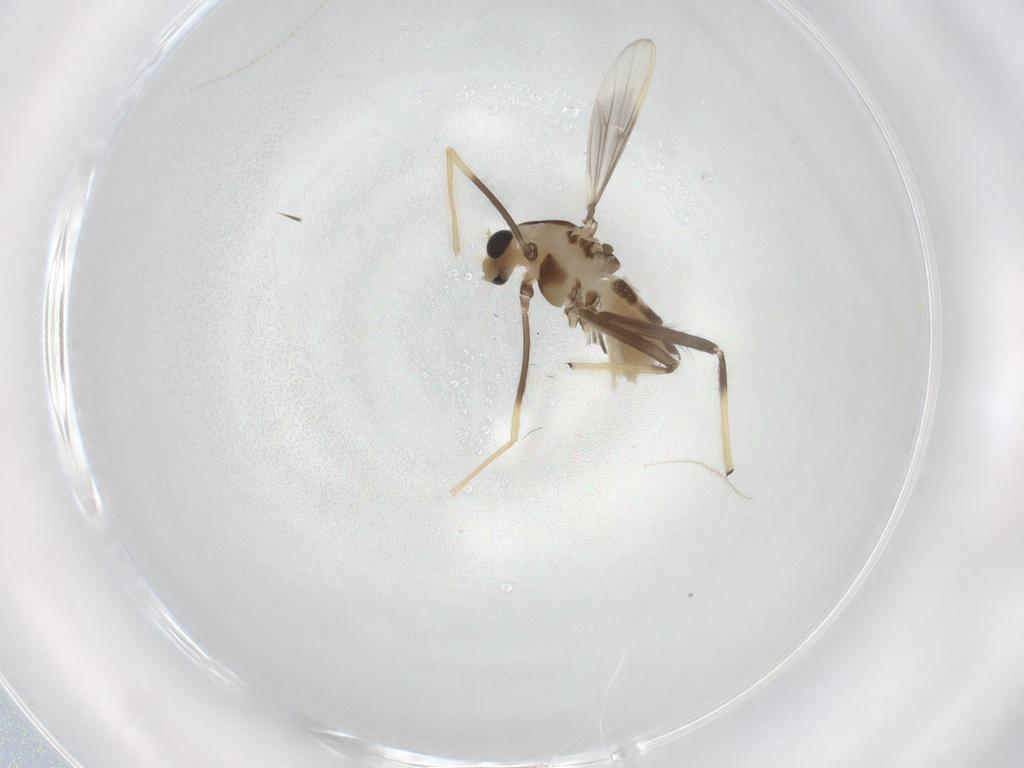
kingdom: Animalia
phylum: Arthropoda
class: Insecta
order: Diptera
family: Chironomidae
